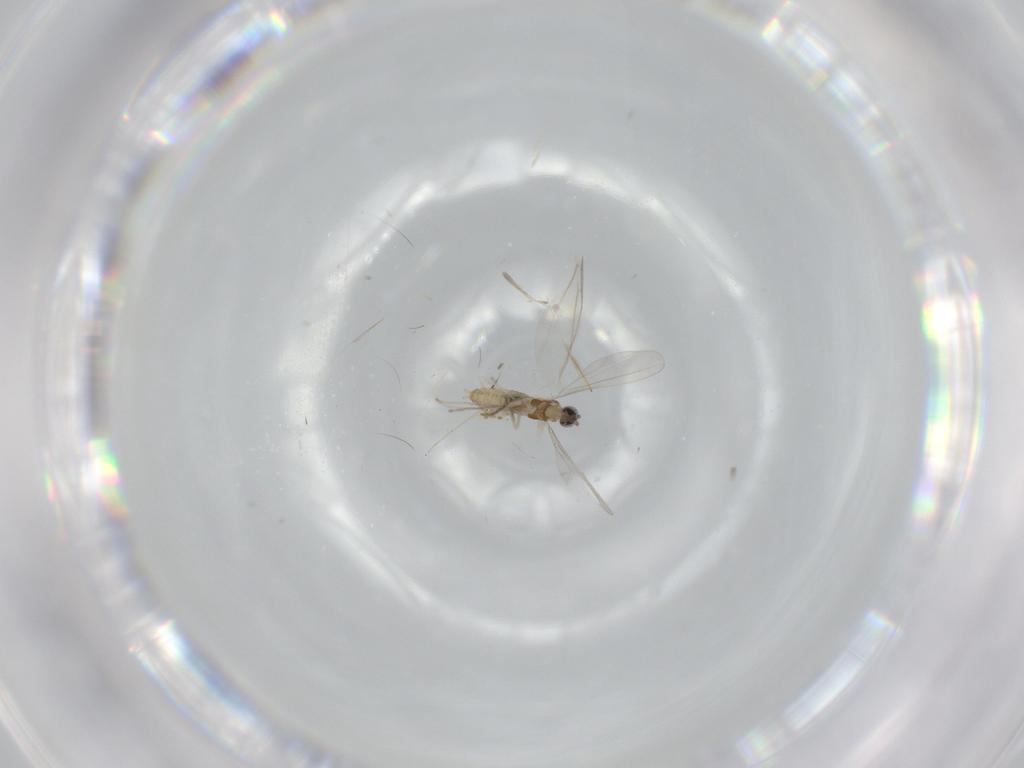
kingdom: Animalia
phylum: Arthropoda
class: Insecta
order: Diptera
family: Cecidomyiidae
